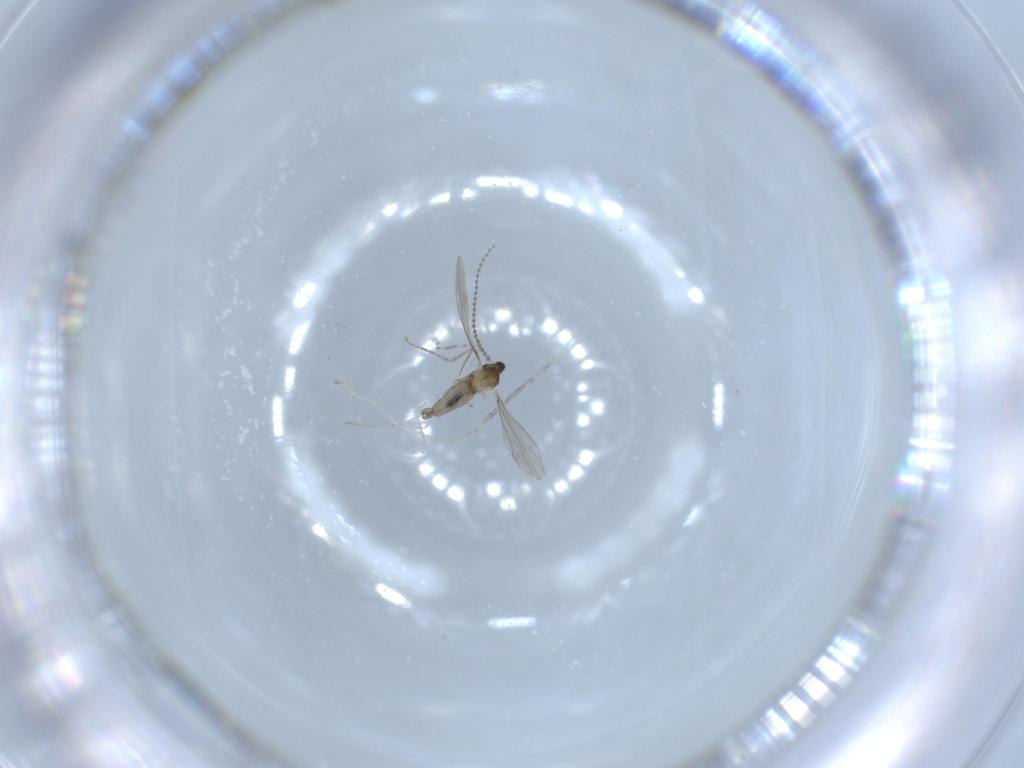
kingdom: Animalia
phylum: Arthropoda
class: Insecta
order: Diptera
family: Cecidomyiidae
